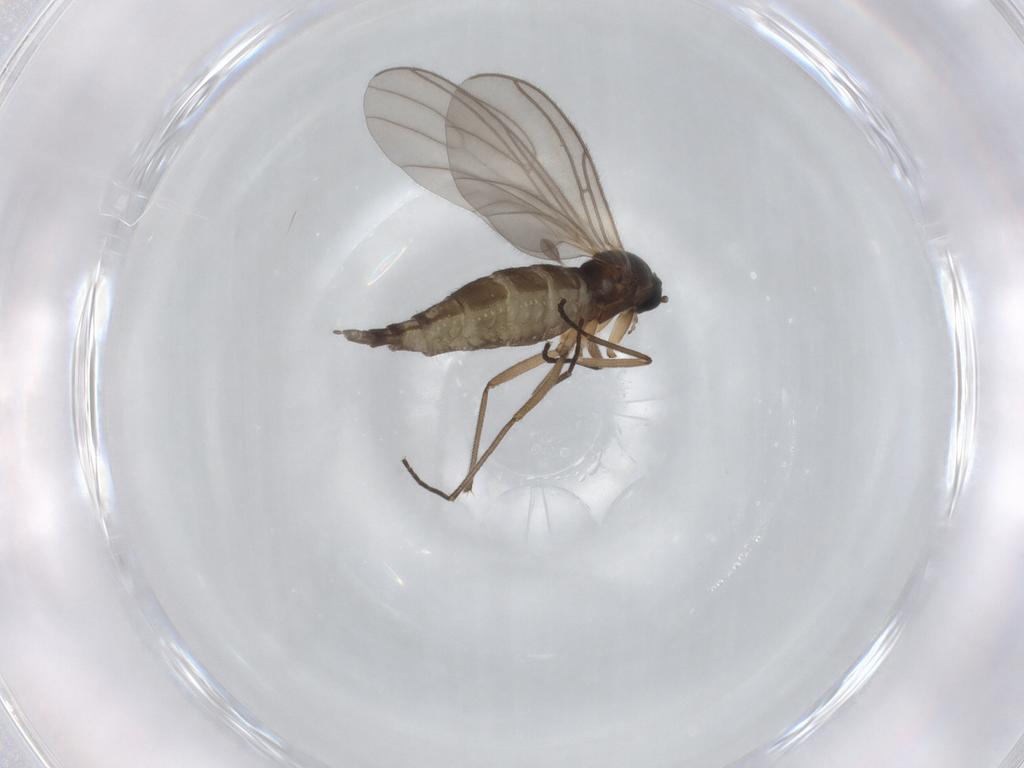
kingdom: Animalia
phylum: Arthropoda
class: Insecta
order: Diptera
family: Sciaridae
